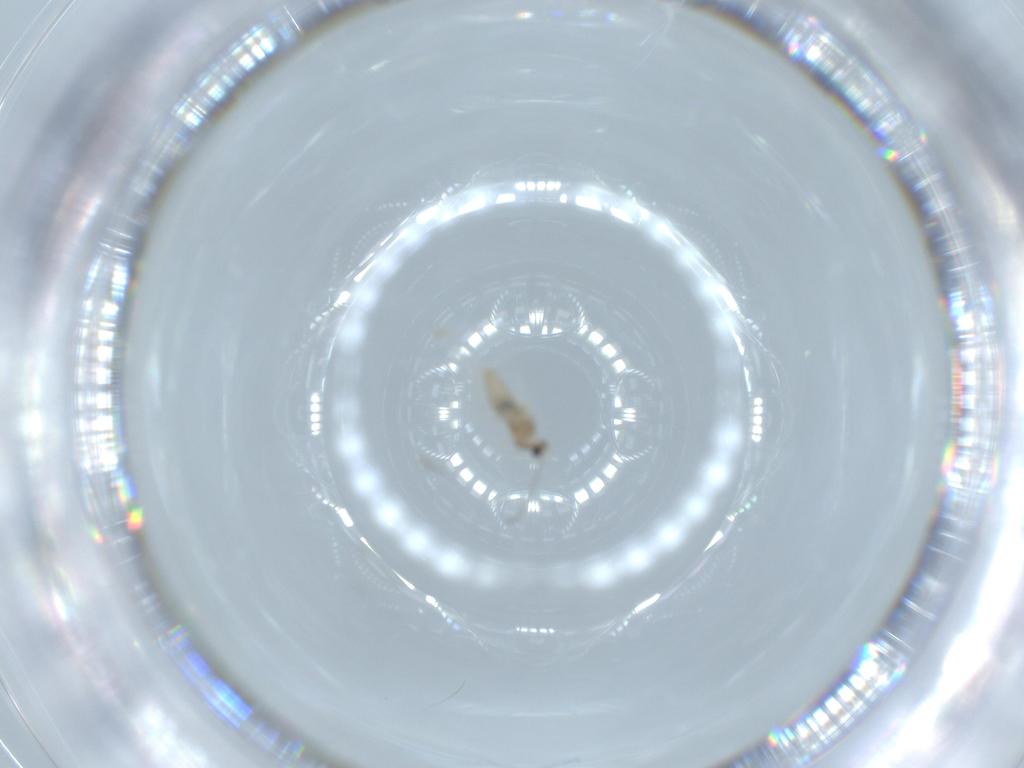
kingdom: Animalia
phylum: Arthropoda
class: Insecta
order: Diptera
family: Cecidomyiidae
